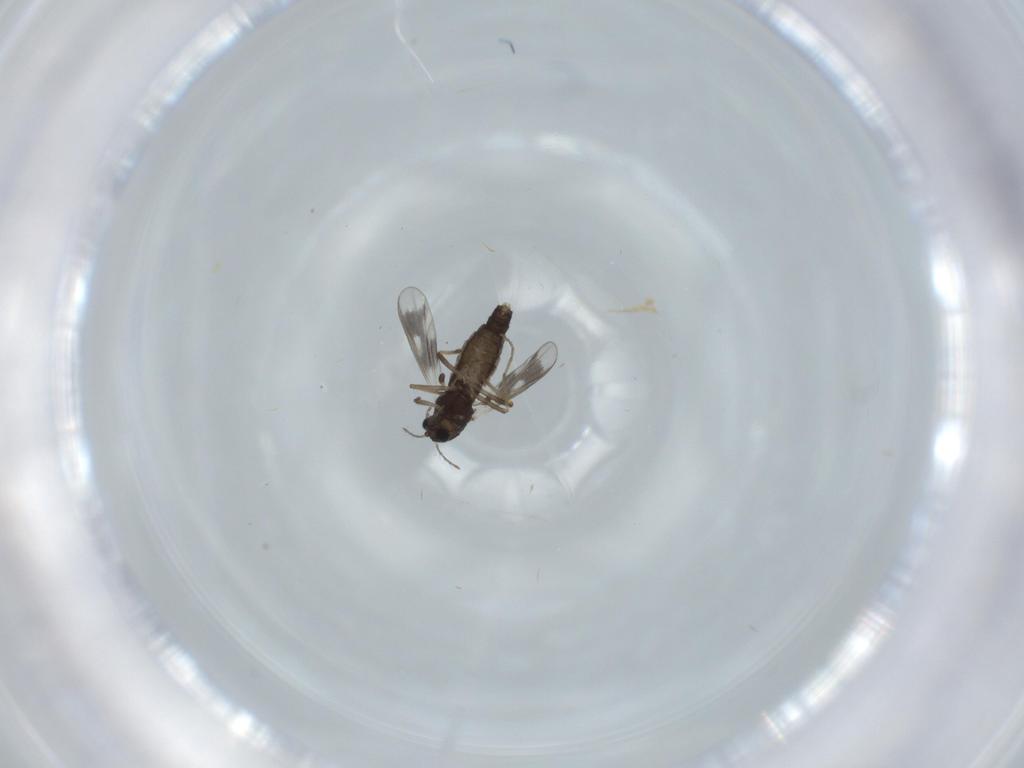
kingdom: Animalia
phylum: Arthropoda
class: Insecta
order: Diptera
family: Chironomidae
